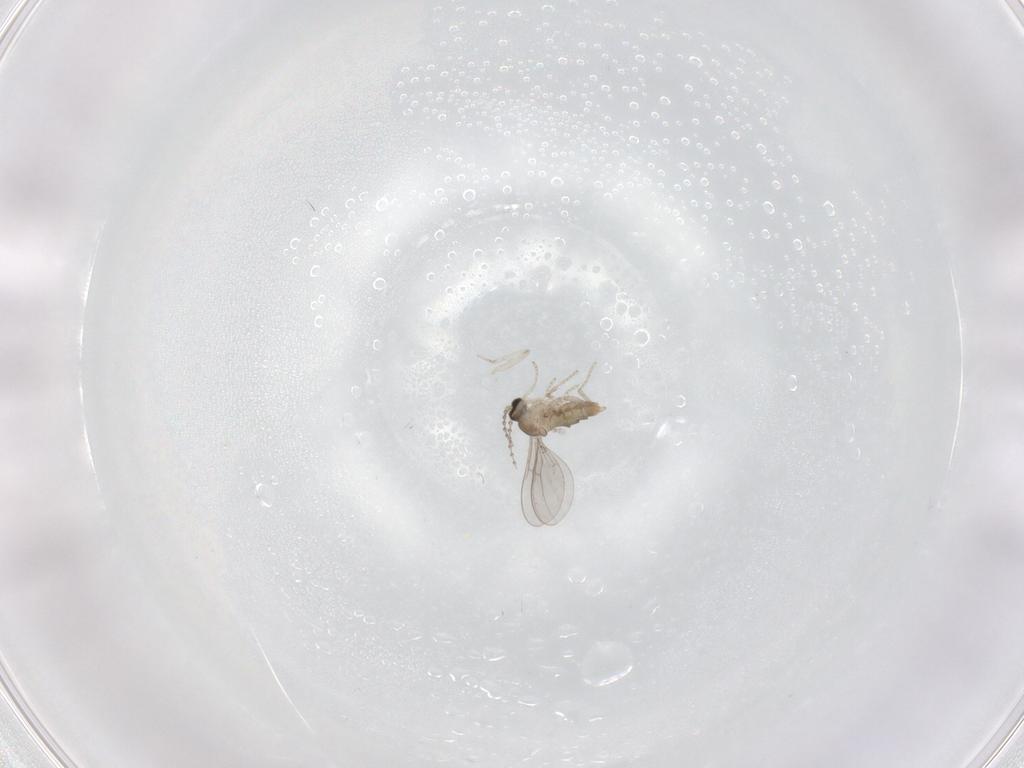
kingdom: Animalia
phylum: Arthropoda
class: Insecta
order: Diptera
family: Cecidomyiidae
